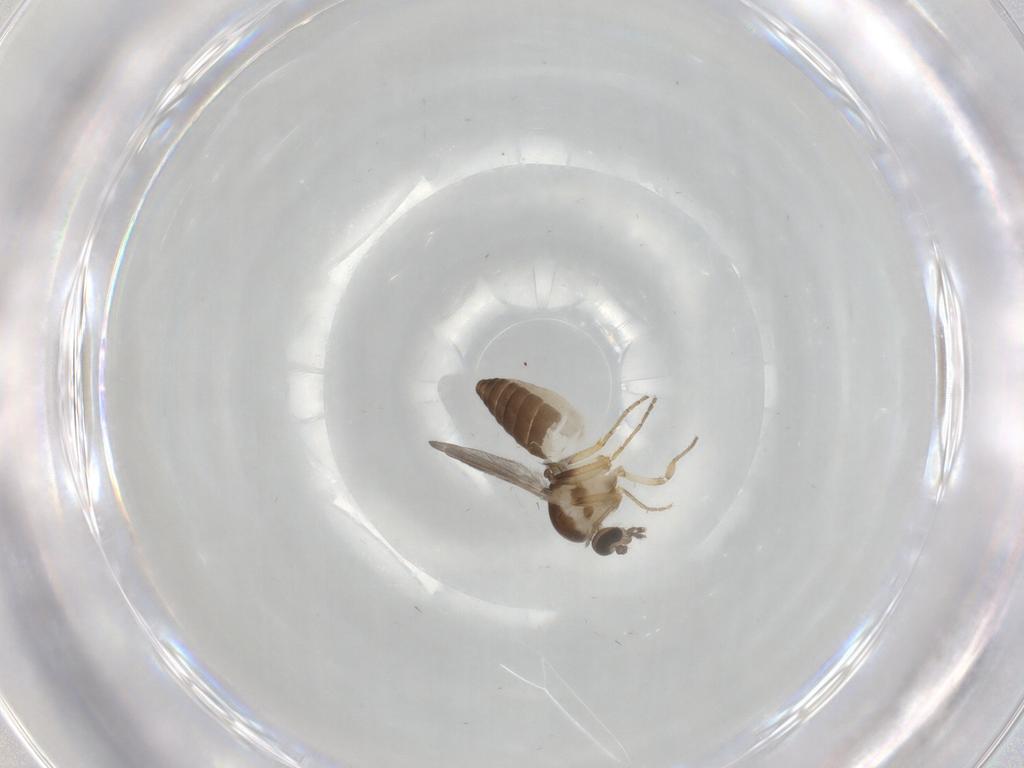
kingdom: Animalia
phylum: Arthropoda
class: Insecta
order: Diptera
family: Ceratopogonidae
